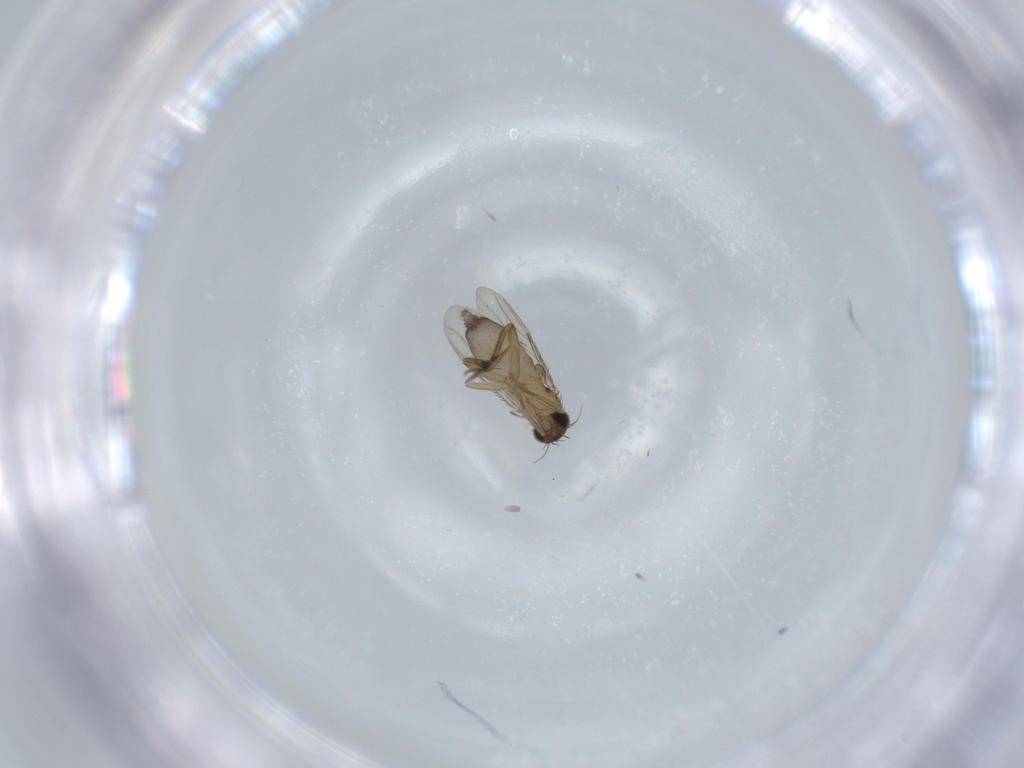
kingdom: Animalia
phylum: Arthropoda
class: Insecta
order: Diptera
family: Phoridae
